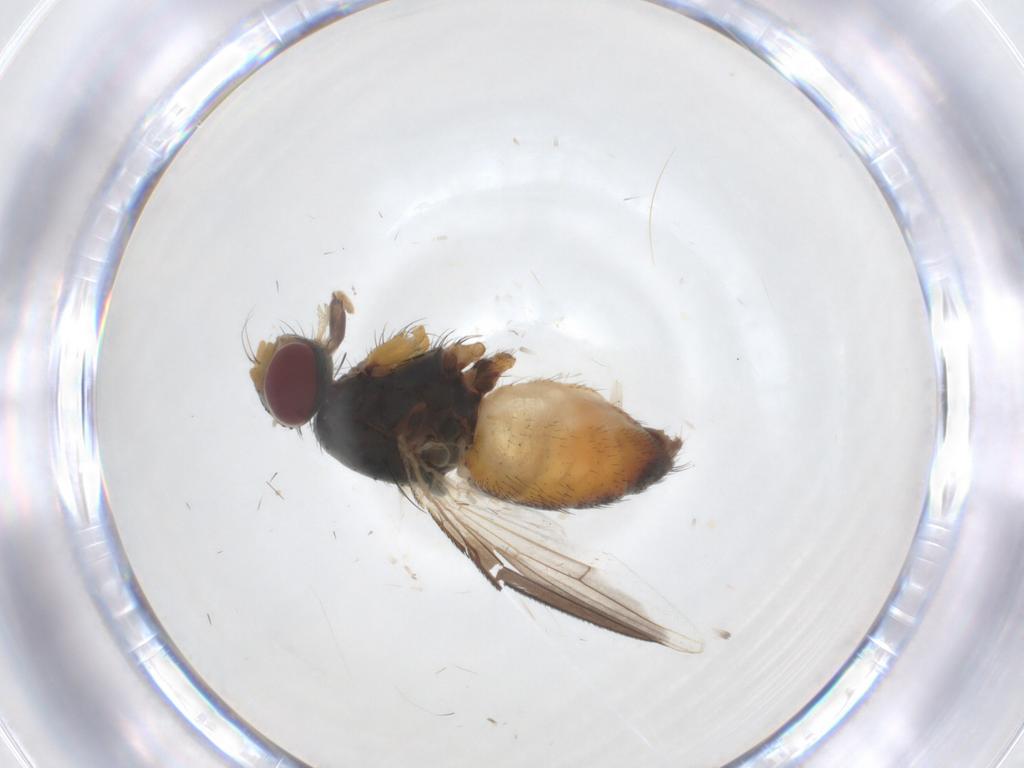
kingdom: Animalia
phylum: Arthropoda
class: Insecta
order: Diptera
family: Chironomidae
